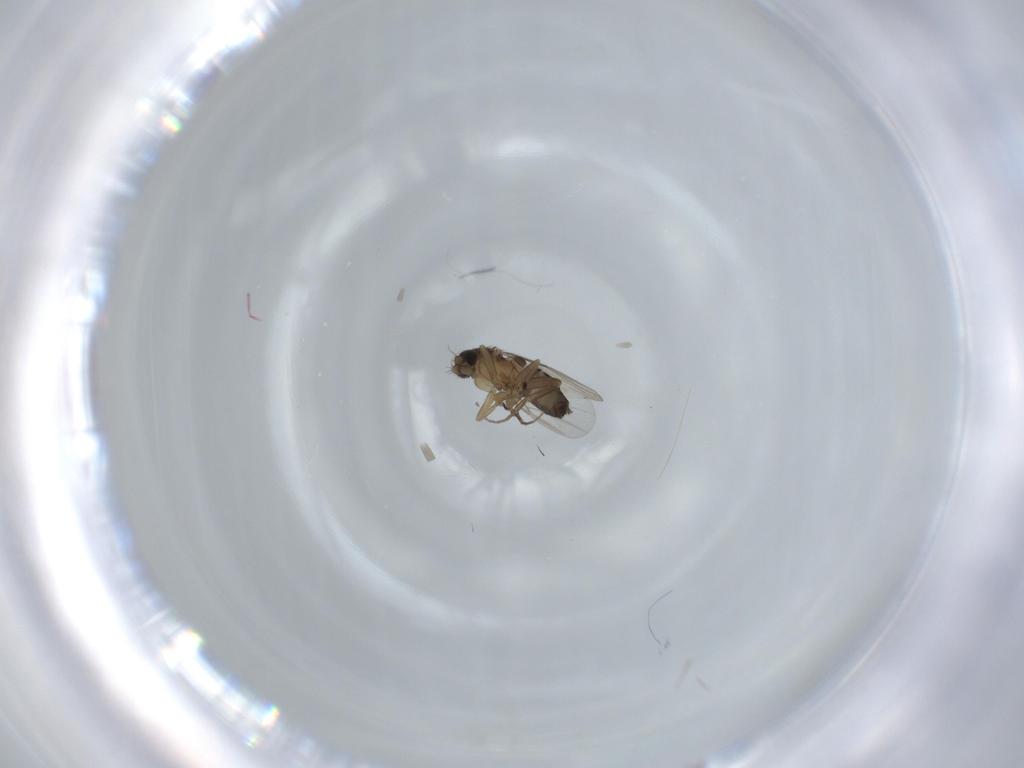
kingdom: Animalia
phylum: Arthropoda
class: Insecta
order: Diptera
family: Phoridae
